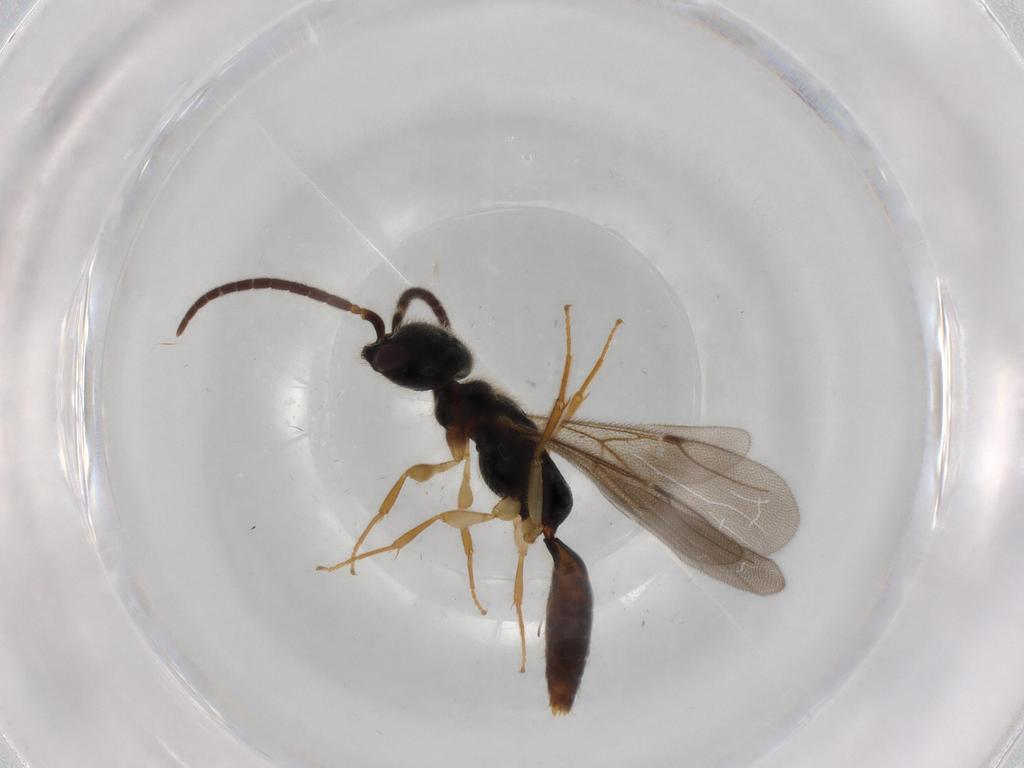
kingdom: Animalia
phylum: Arthropoda
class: Insecta
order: Hymenoptera
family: Bethylidae
